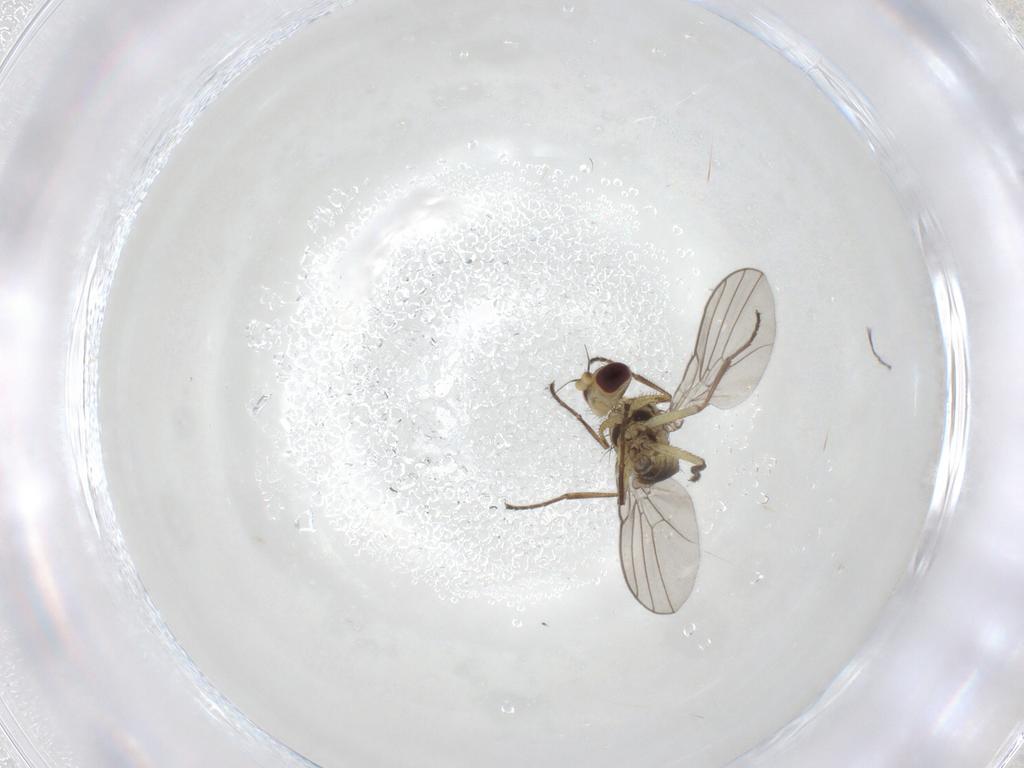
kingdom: Animalia
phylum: Arthropoda
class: Insecta
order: Diptera
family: Agromyzidae
